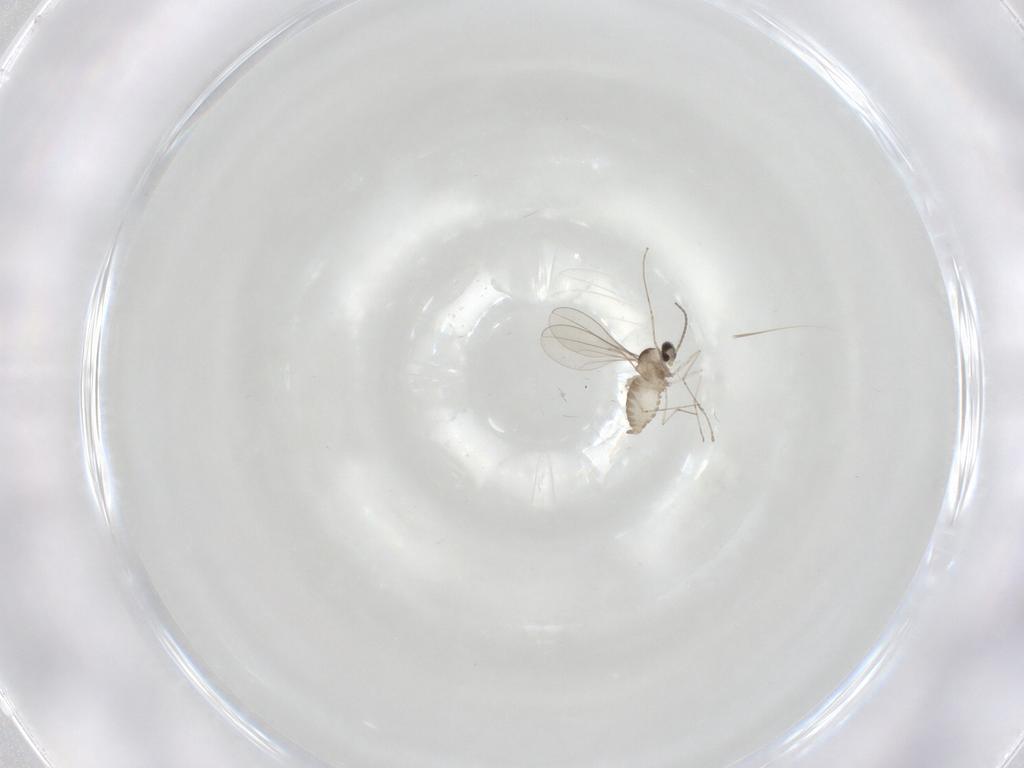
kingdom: Animalia
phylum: Arthropoda
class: Insecta
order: Diptera
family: Cecidomyiidae
